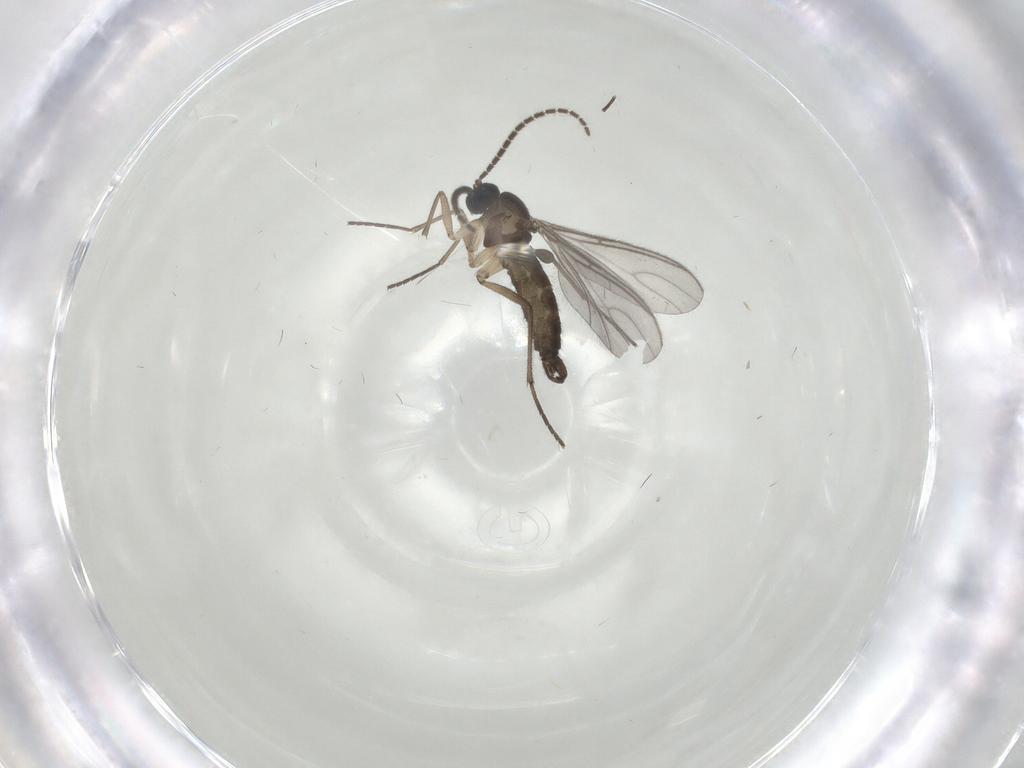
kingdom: Animalia
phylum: Arthropoda
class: Insecta
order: Diptera
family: Sciaridae
